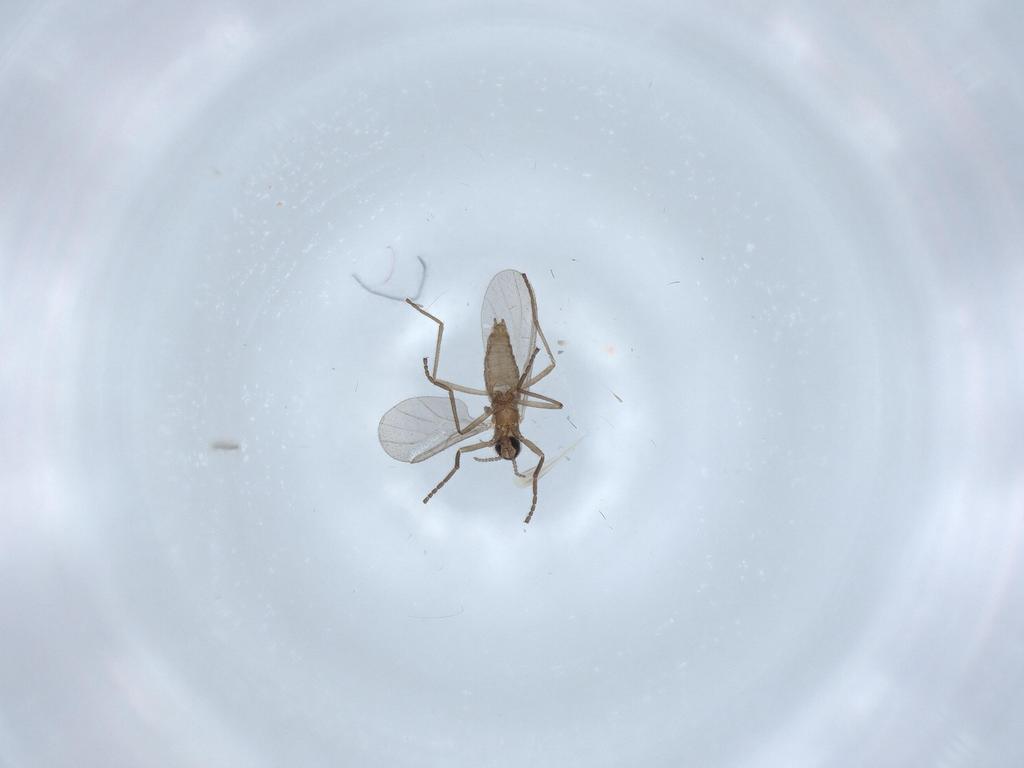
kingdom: Animalia
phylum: Arthropoda
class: Insecta
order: Diptera
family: Cecidomyiidae
